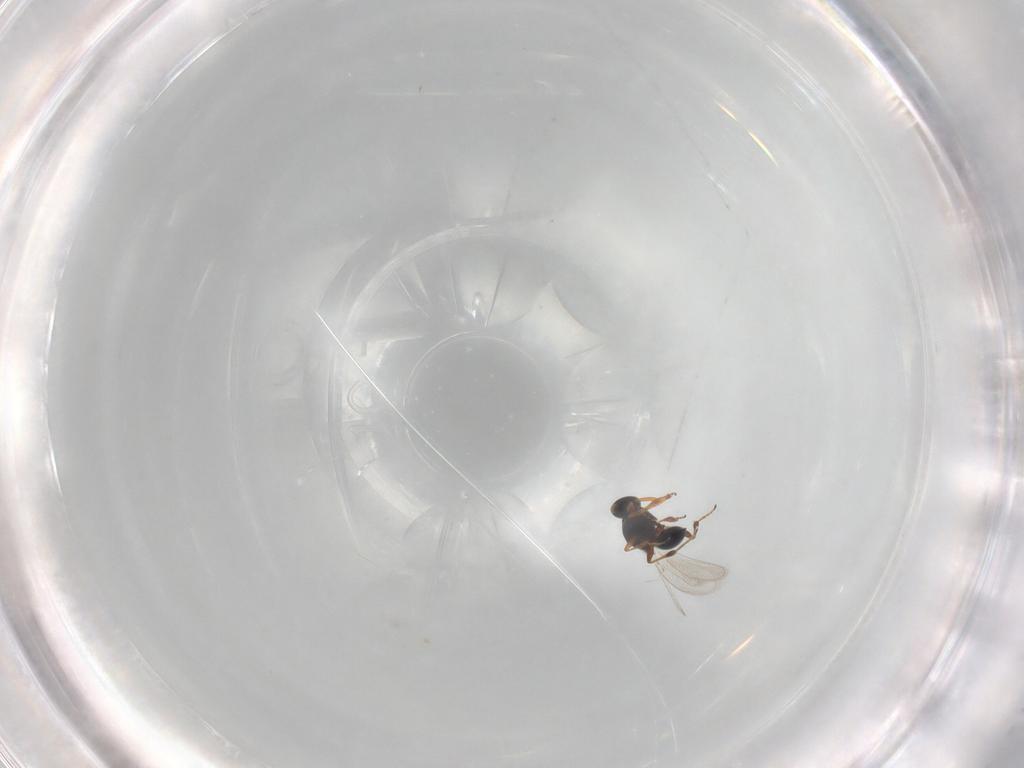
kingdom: Animalia
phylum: Arthropoda
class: Insecta
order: Hymenoptera
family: Platygastridae
